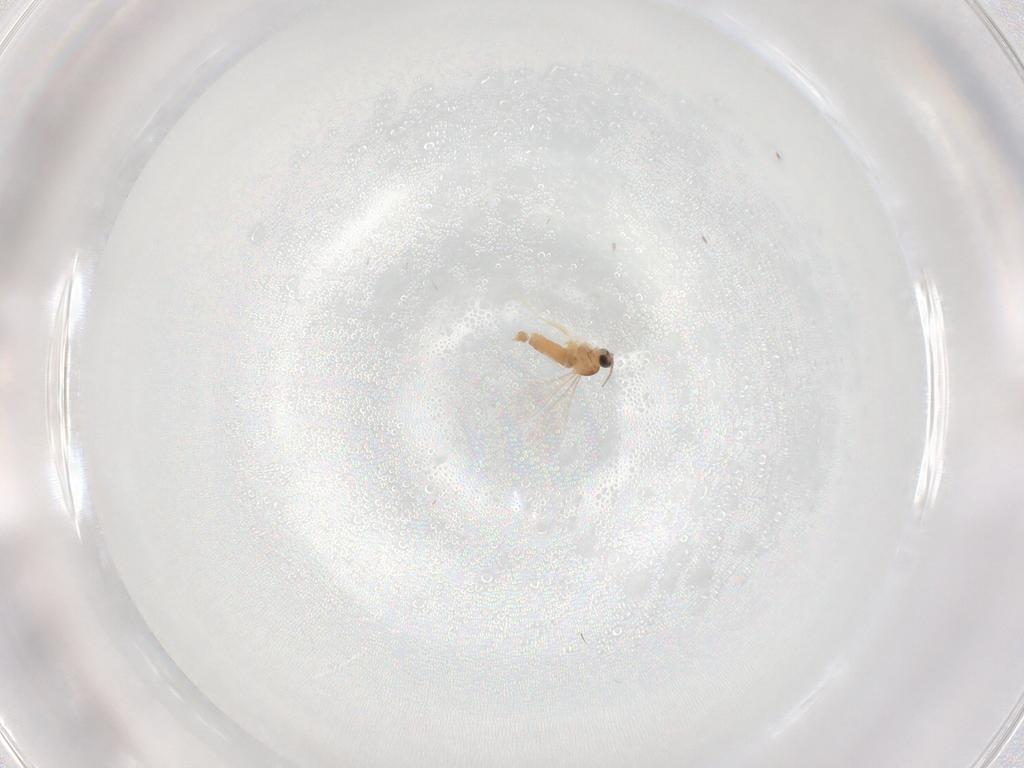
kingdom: Animalia
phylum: Arthropoda
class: Insecta
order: Diptera
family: Cecidomyiidae
